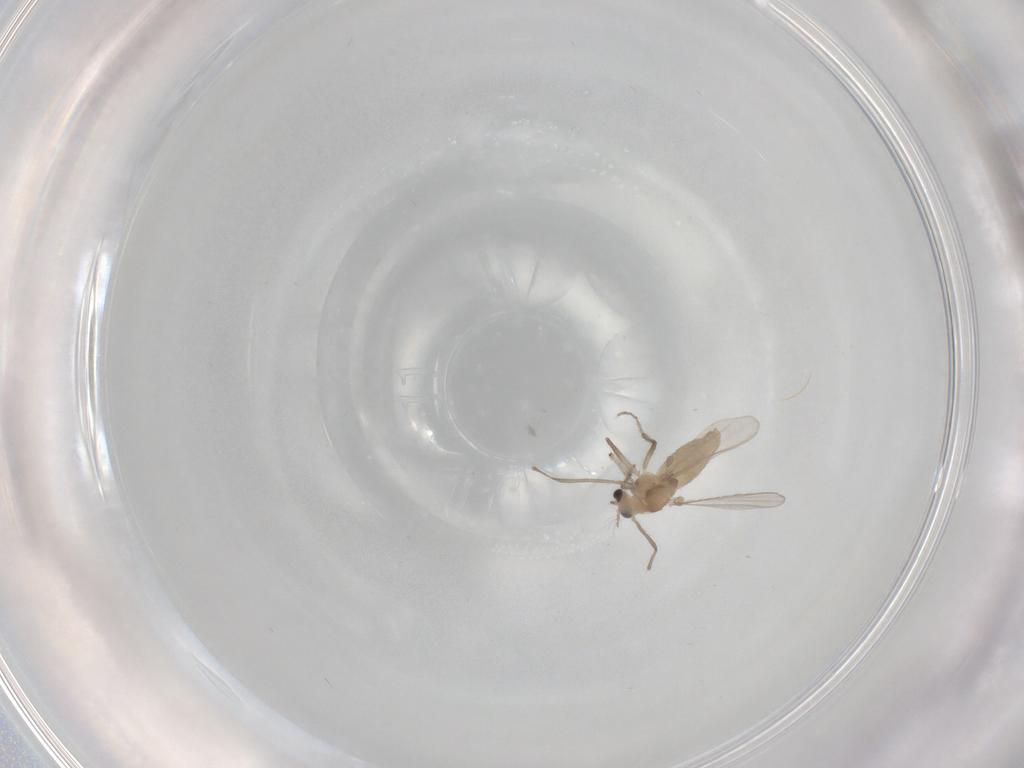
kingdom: Animalia
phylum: Arthropoda
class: Insecta
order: Diptera
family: Chironomidae
